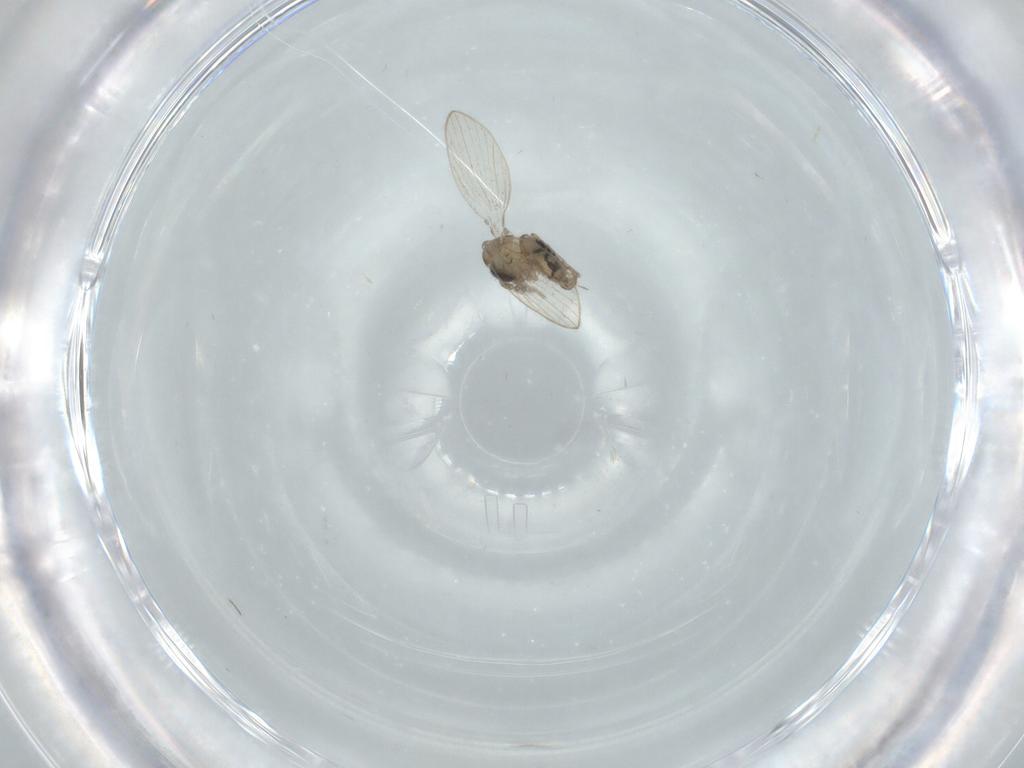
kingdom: Animalia
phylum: Arthropoda
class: Insecta
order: Diptera
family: Psychodidae
